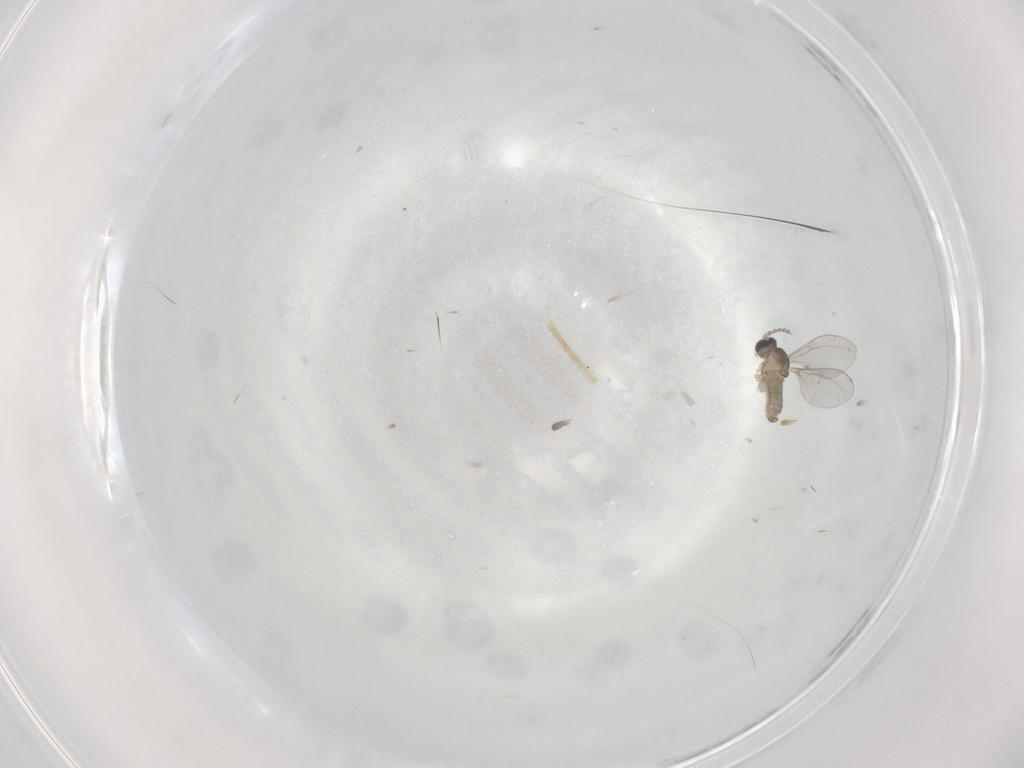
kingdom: Animalia
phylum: Arthropoda
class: Insecta
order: Diptera
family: Cecidomyiidae
